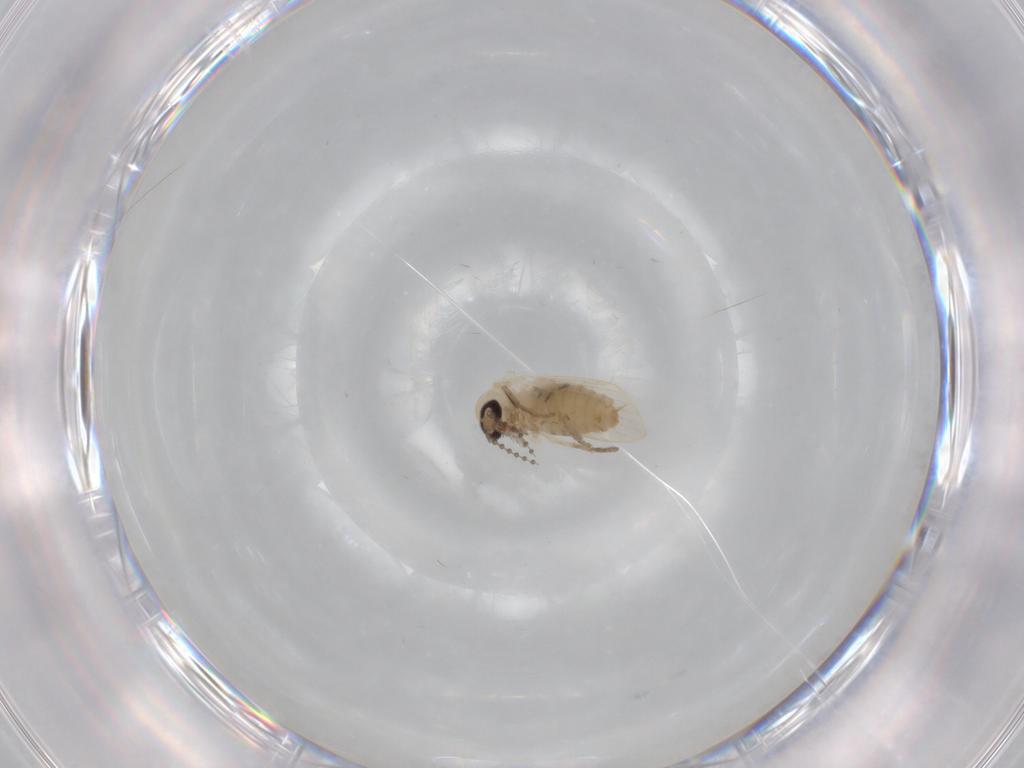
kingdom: Animalia
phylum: Arthropoda
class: Insecta
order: Diptera
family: Psychodidae
